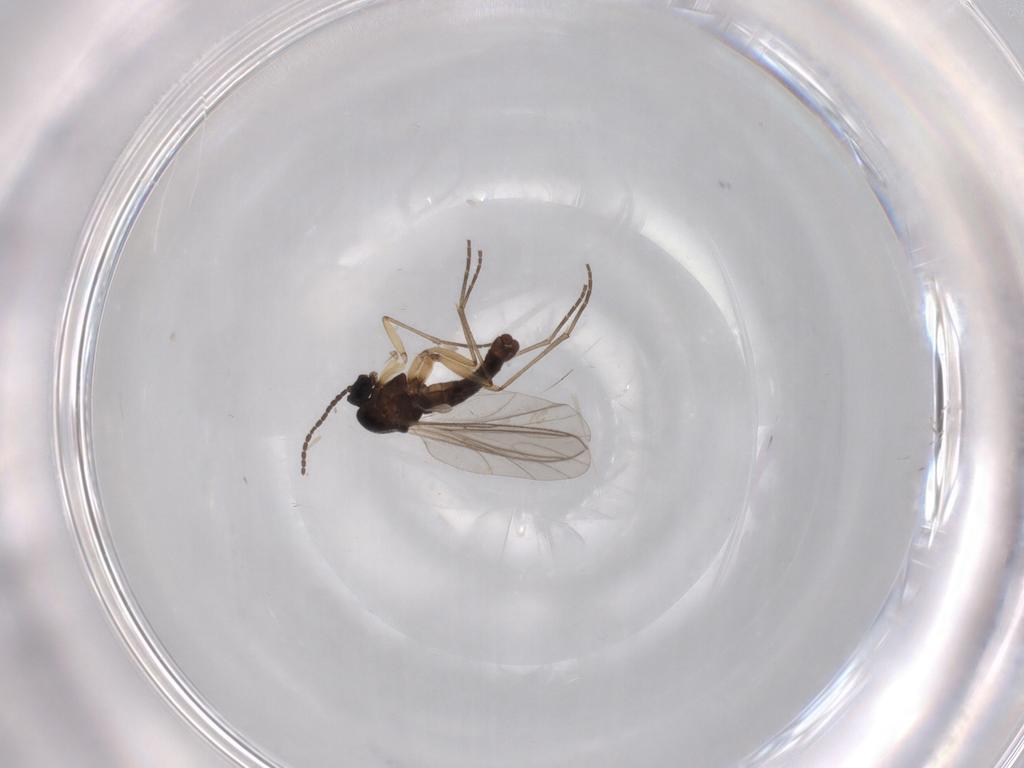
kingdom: Animalia
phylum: Arthropoda
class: Insecta
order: Diptera
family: Sciaridae
